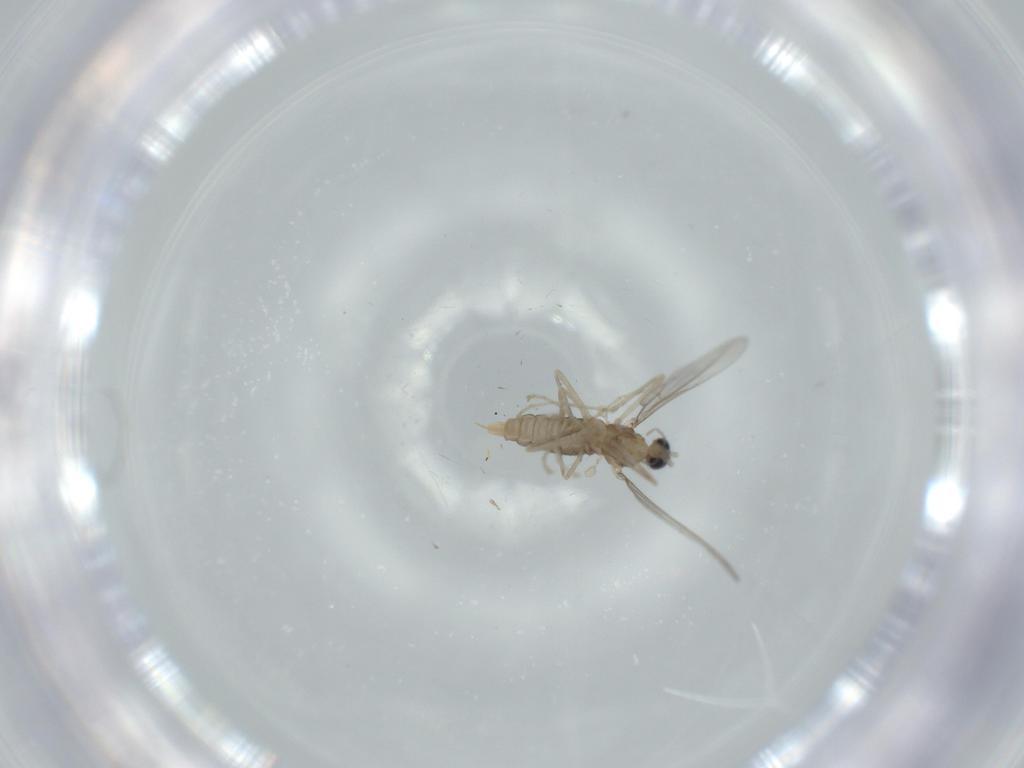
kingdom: Animalia
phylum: Arthropoda
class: Insecta
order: Diptera
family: Cecidomyiidae
